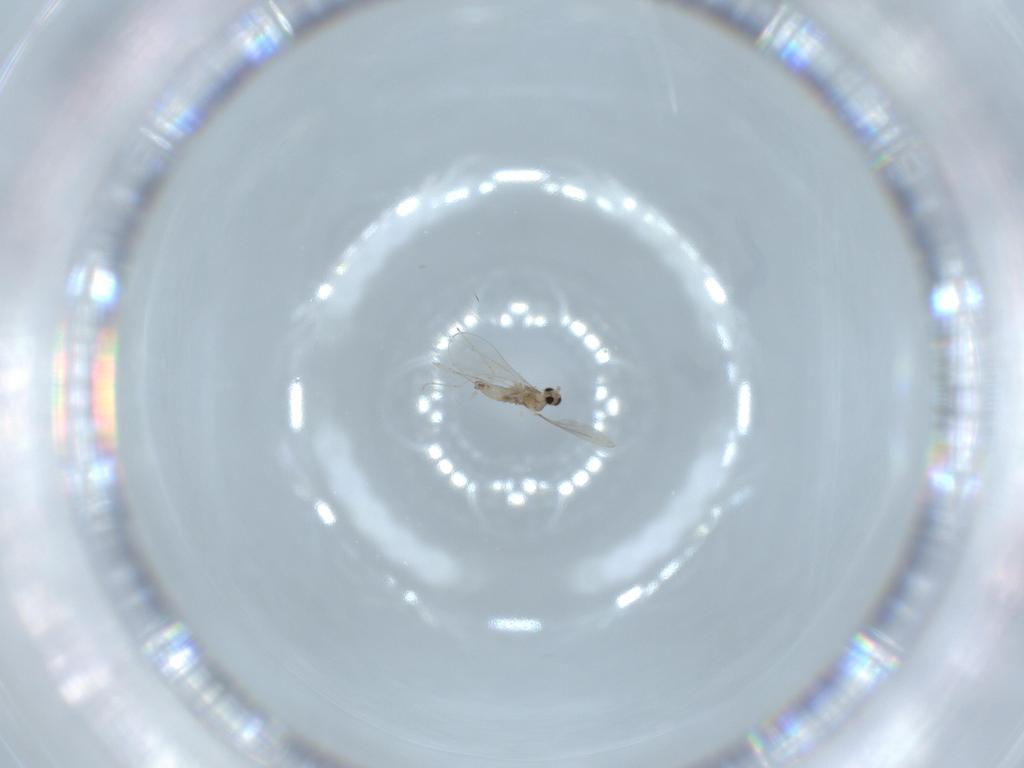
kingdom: Animalia
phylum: Arthropoda
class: Insecta
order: Diptera
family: Cecidomyiidae
